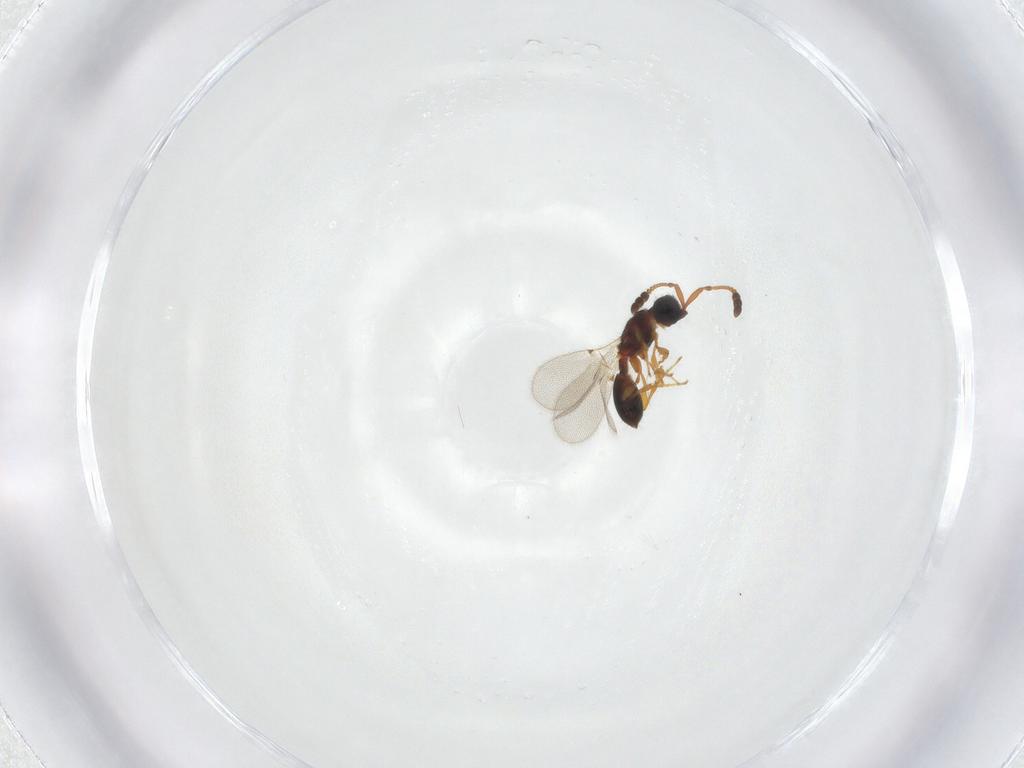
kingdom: Animalia
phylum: Arthropoda
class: Insecta
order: Hymenoptera
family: Diapriidae
